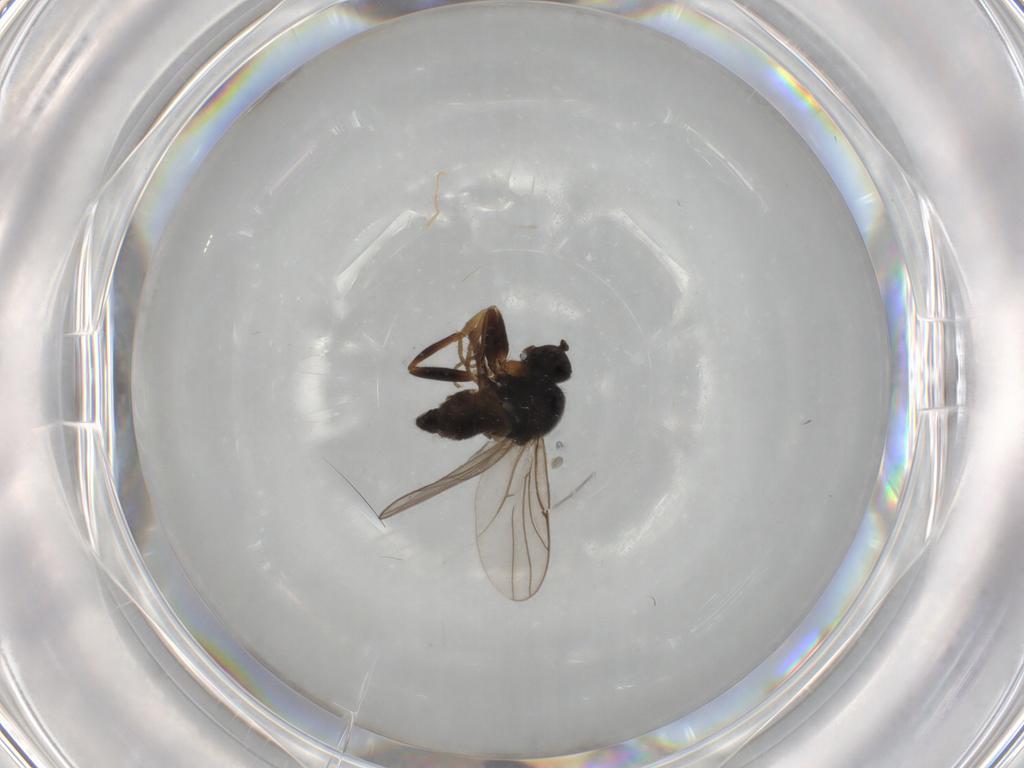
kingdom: Animalia
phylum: Arthropoda
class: Insecta
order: Diptera
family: Hybotidae
